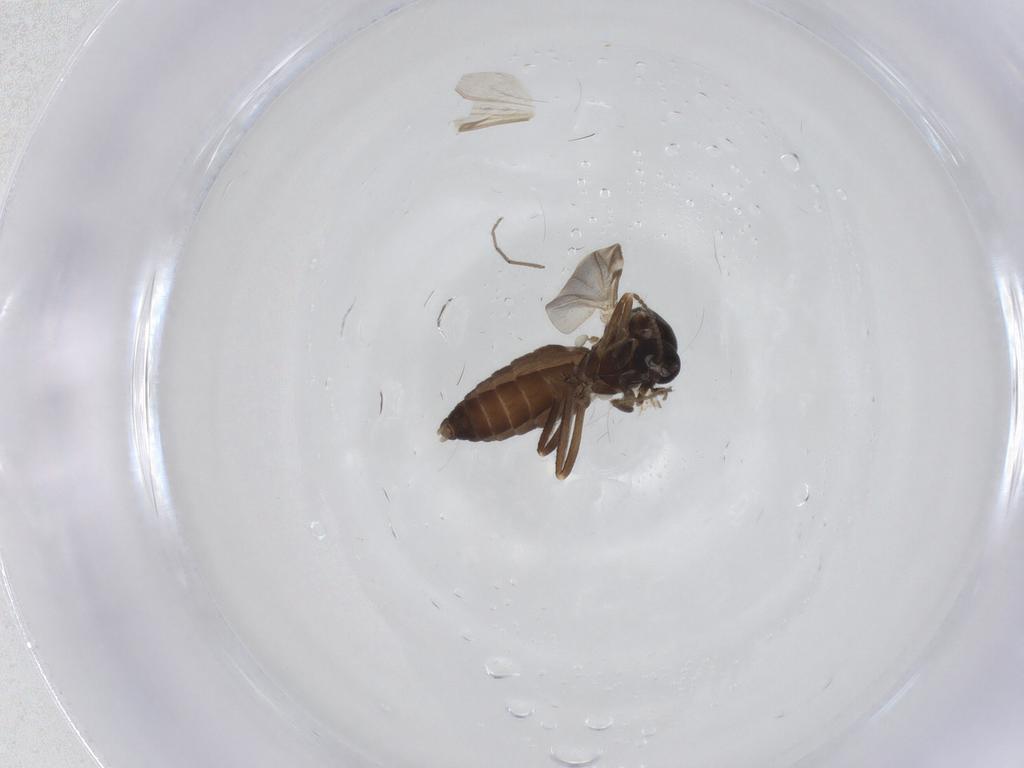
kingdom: Animalia
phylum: Arthropoda
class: Insecta
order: Diptera
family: Ceratopogonidae
